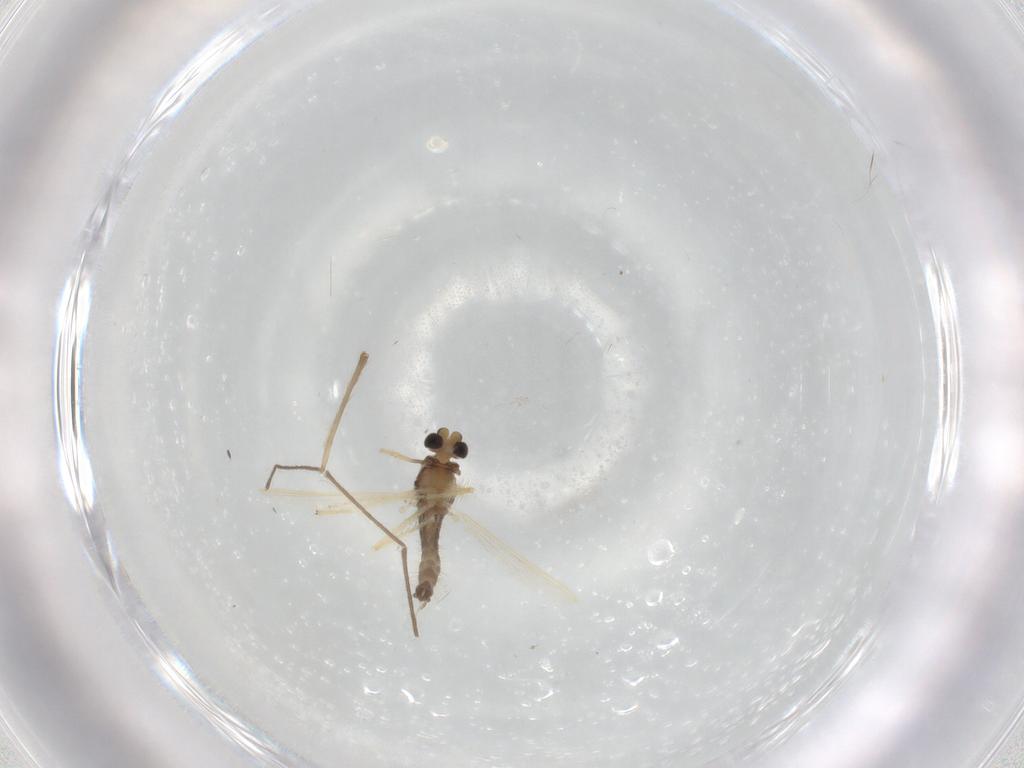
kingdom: Animalia
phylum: Arthropoda
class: Insecta
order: Diptera
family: Chironomidae
